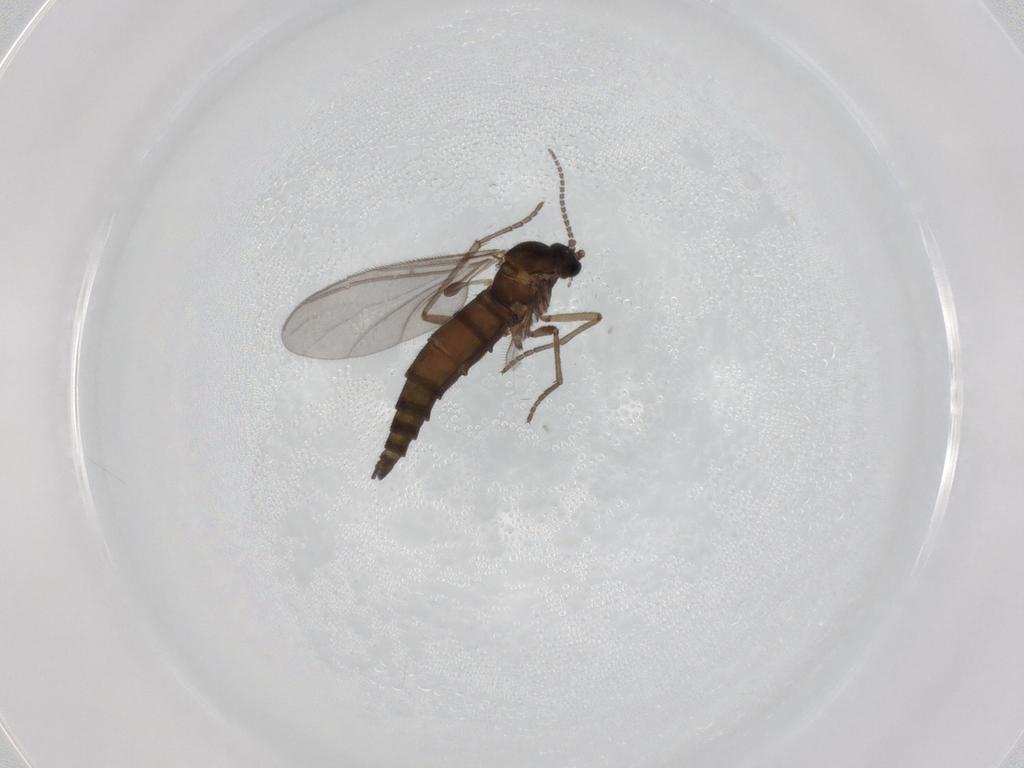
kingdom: Animalia
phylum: Arthropoda
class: Insecta
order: Diptera
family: Sciaridae
